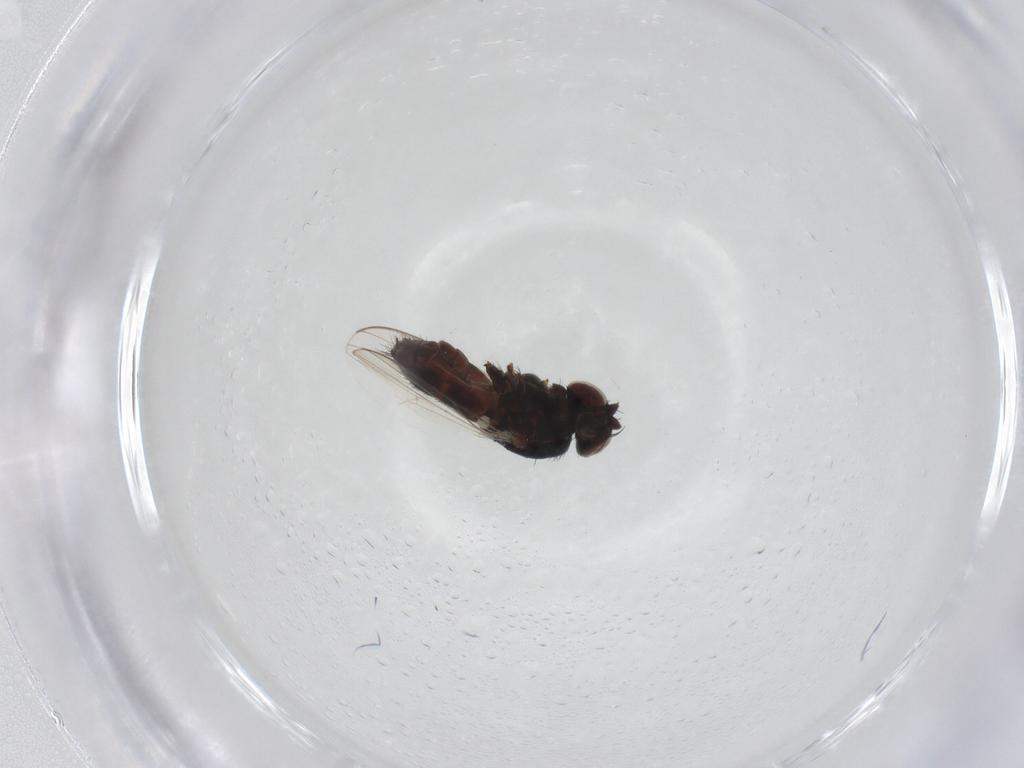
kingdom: Animalia
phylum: Arthropoda
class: Insecta
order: Diptera
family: Milichiidae
